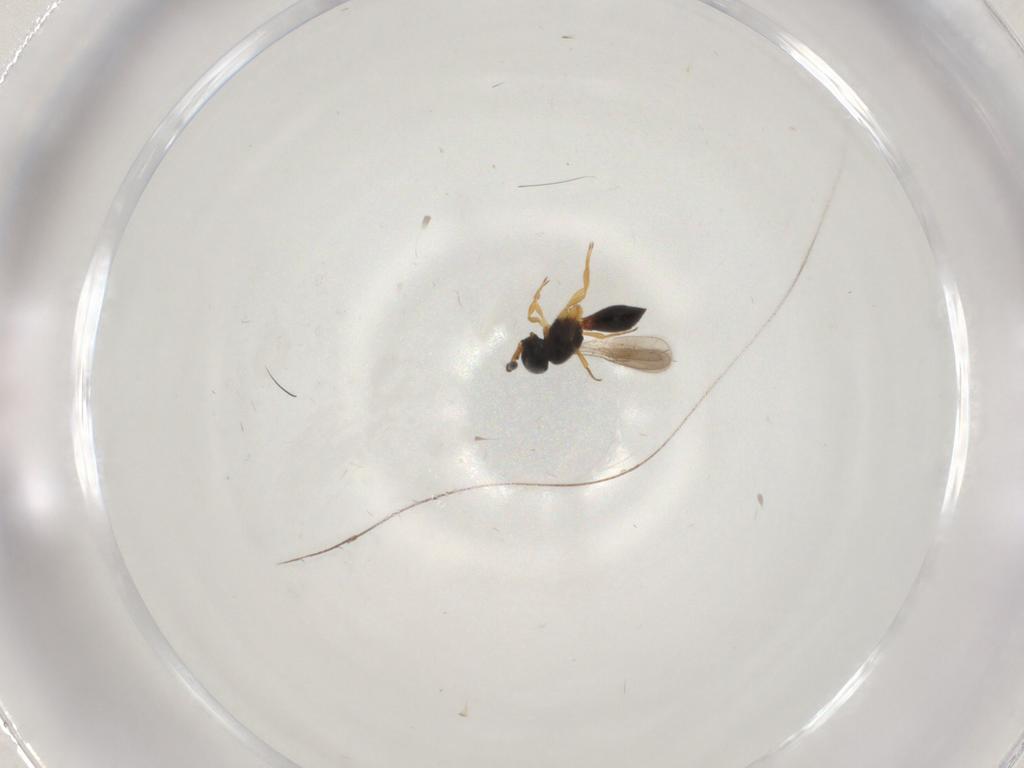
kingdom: Animalia
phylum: Arthropoda
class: Insecta
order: Hymenoptera
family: Scelionidae
